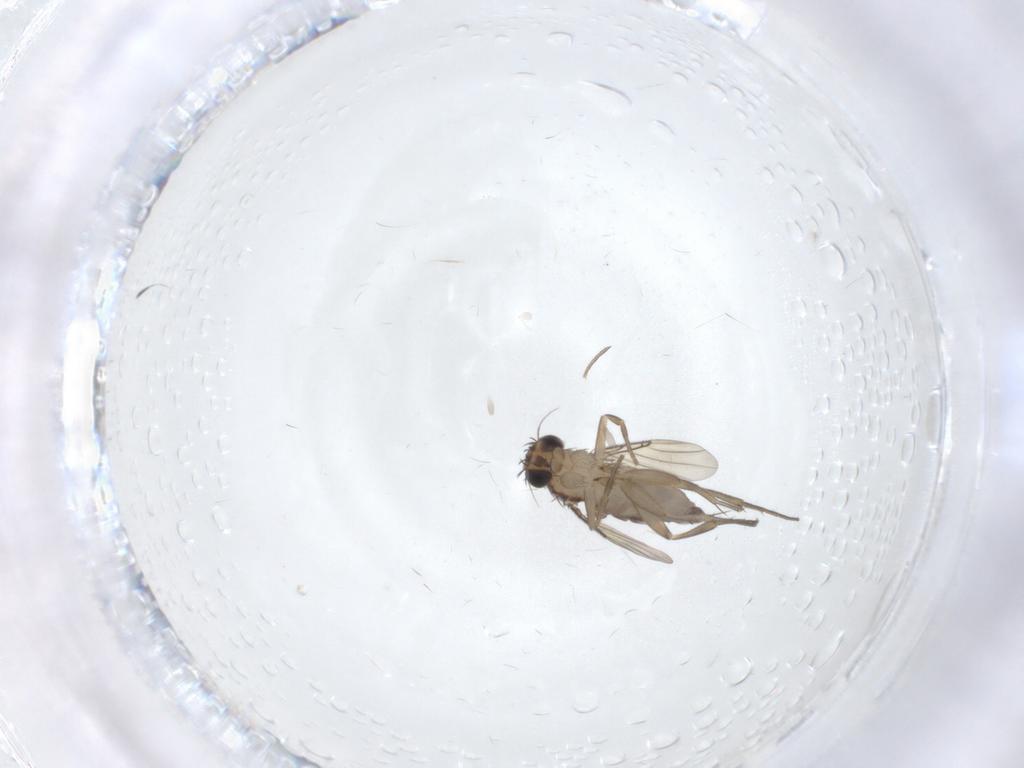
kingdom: Animalia
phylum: Arthropoda
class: Insecta
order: Diptera
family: Phoridae
